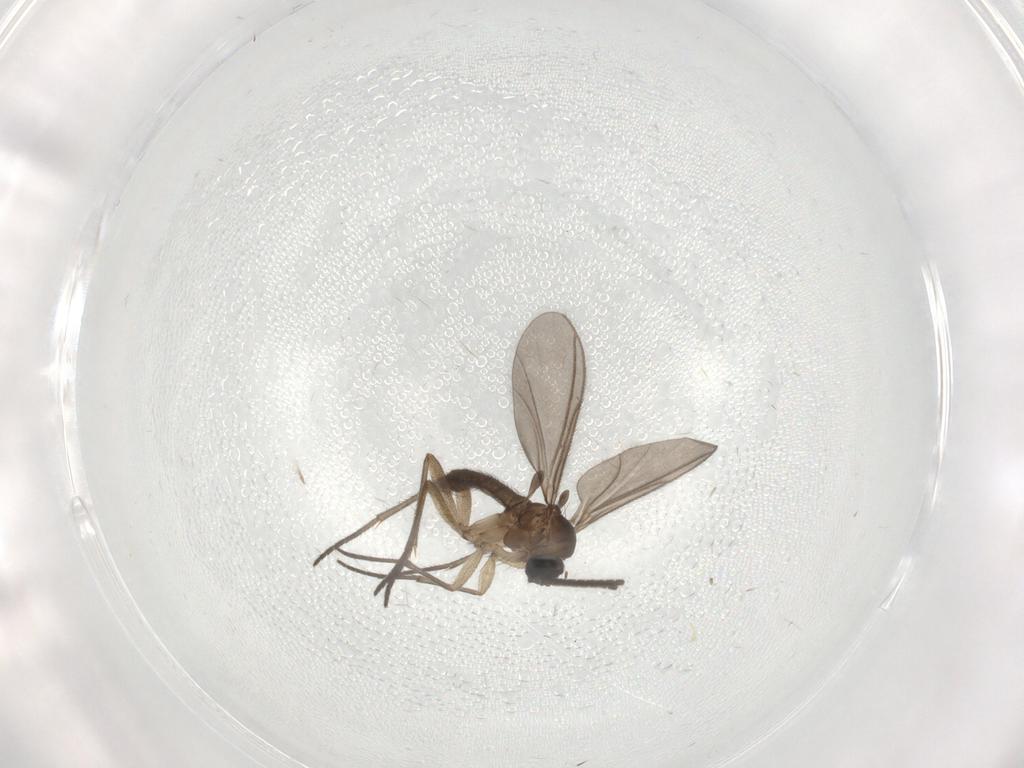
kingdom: Animalia
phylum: Arthropoda
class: Insecta
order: Diptera
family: Sciaridae
